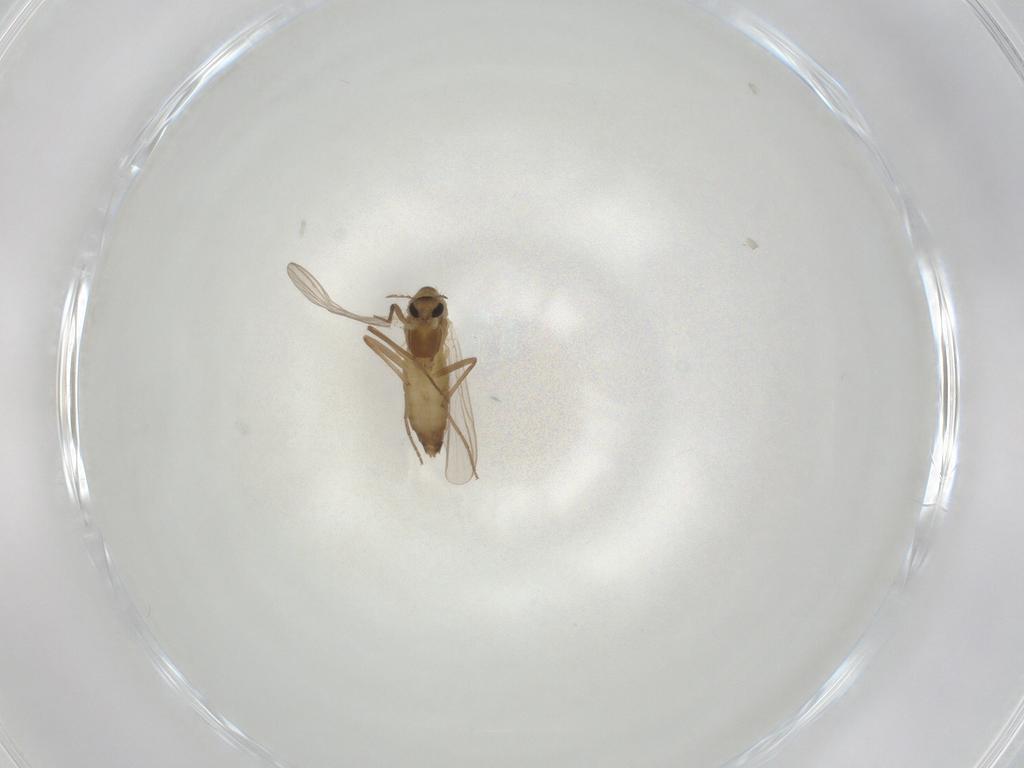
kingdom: Animalia
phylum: Arthropoda
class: Insecta
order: Diptera
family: Chironomidae
